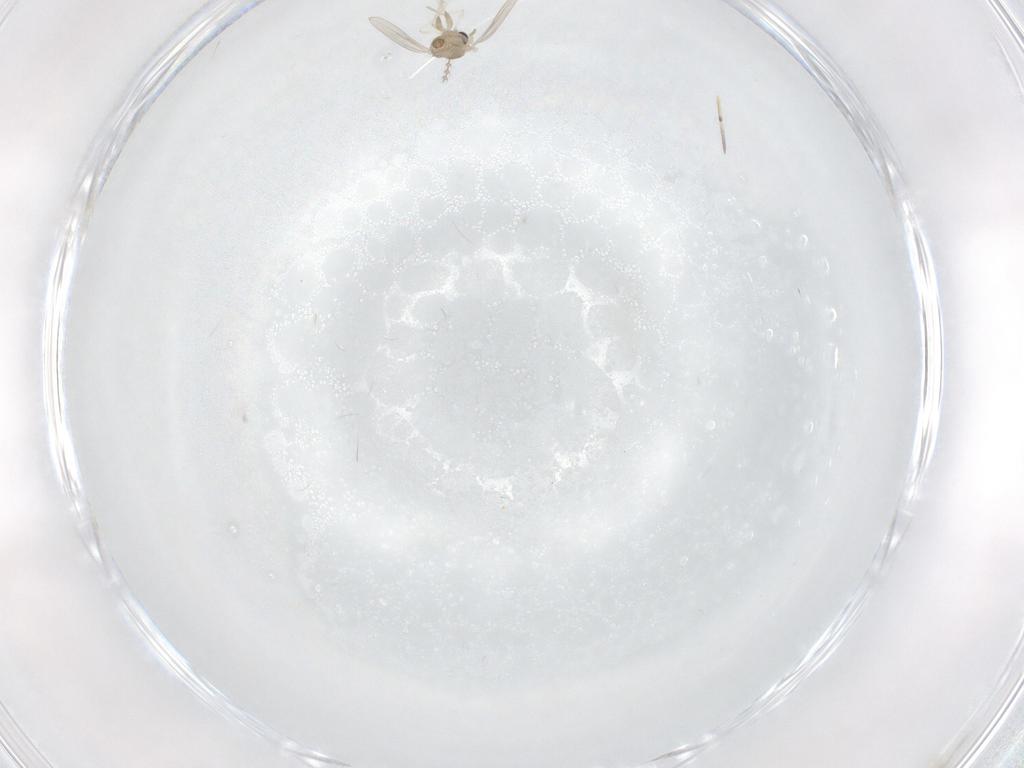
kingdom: Animalia
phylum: Arthropoda
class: Insecta
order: Diptera
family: Cecidomyiidae
